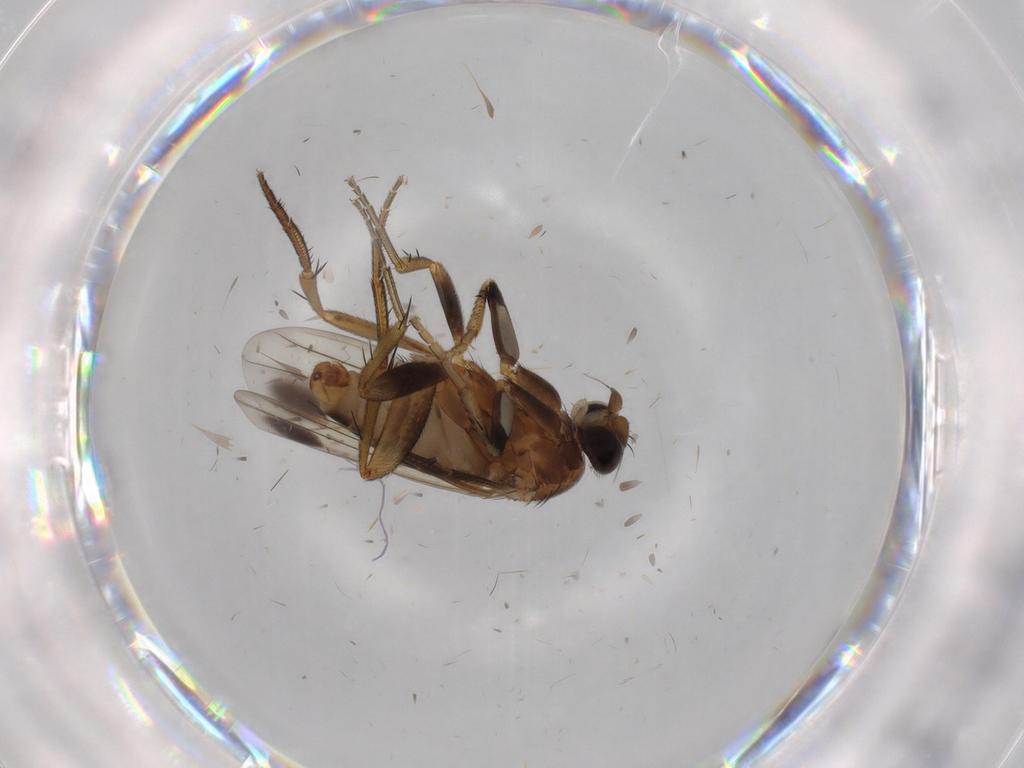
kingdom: Animalia
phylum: Arthropoda
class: Insecta
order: Diptera
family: Phoridae
